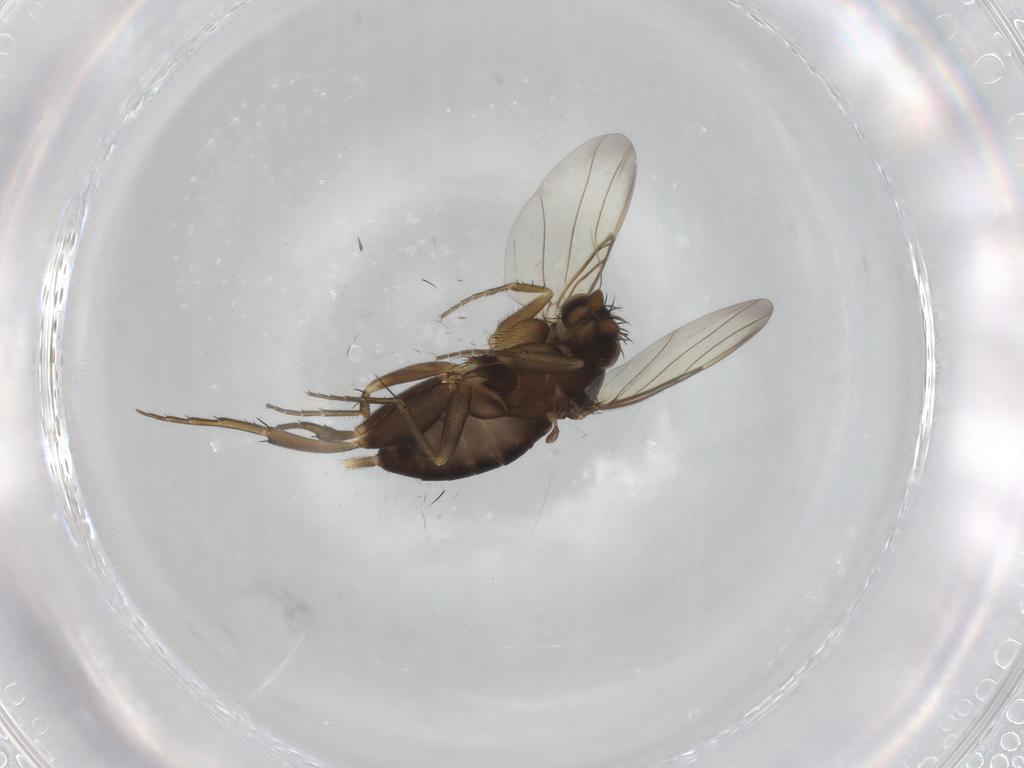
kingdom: Animalia
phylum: Arthropoda
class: Insecta
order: Diptera
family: Phoridae
